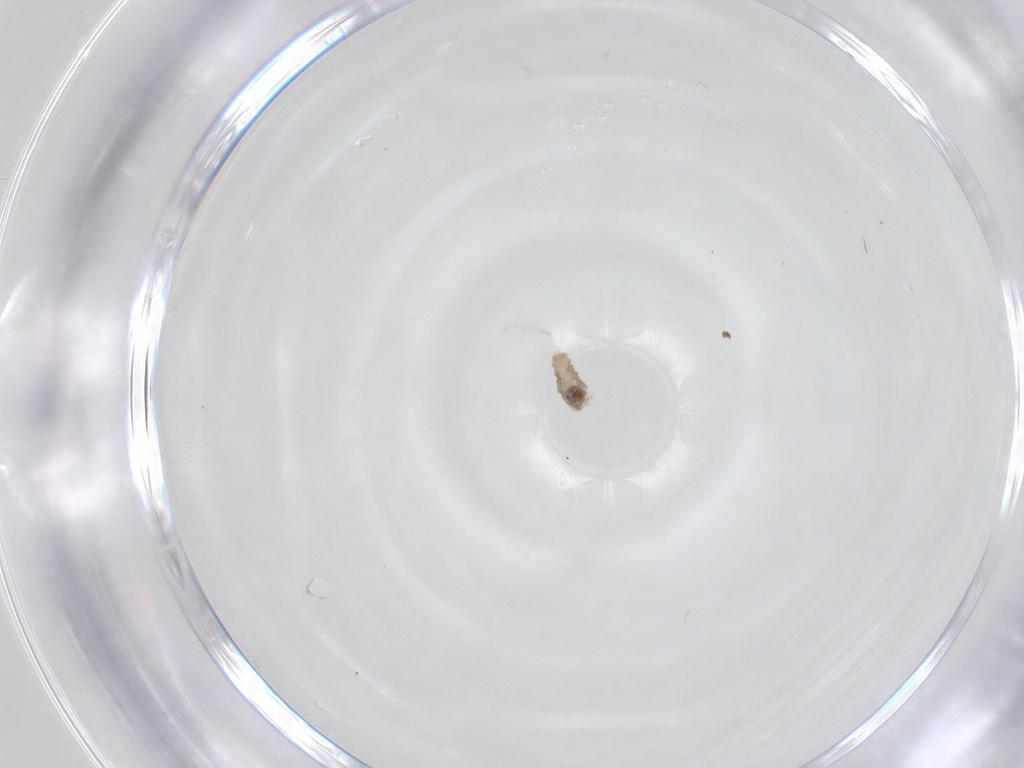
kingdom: Animalia
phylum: Arthropoda
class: Insecta
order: Diptera
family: Cecidomyiidae
